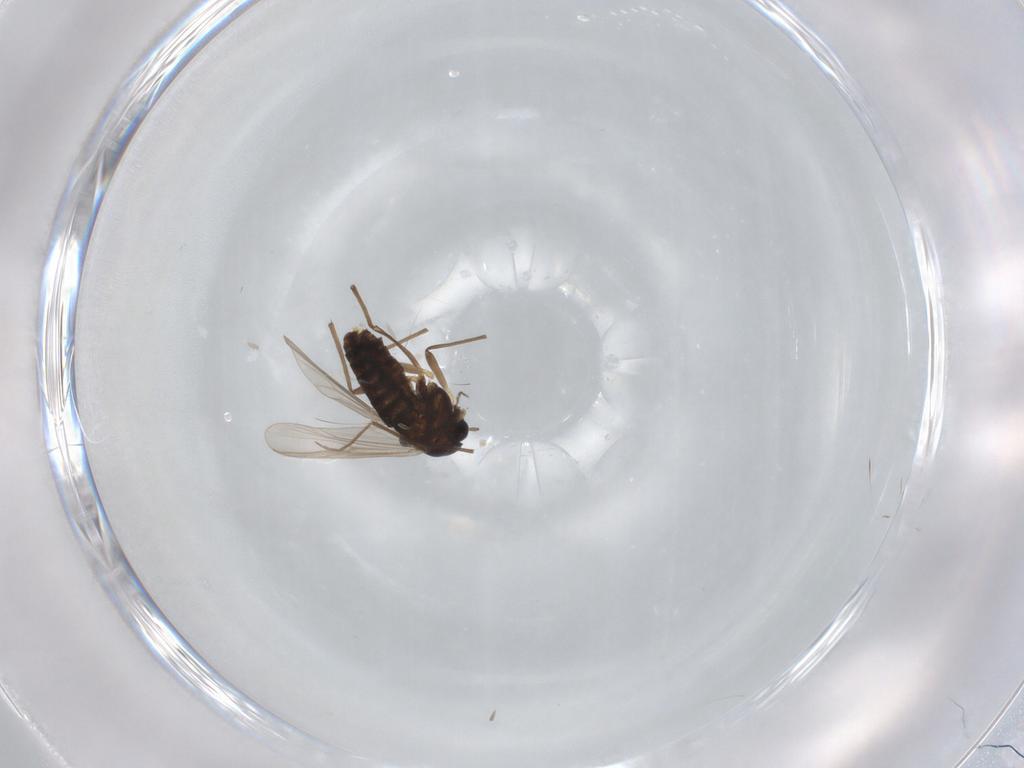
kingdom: Animalia
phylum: Arthropoda
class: Insecta
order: Diptera
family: Chironomidae
